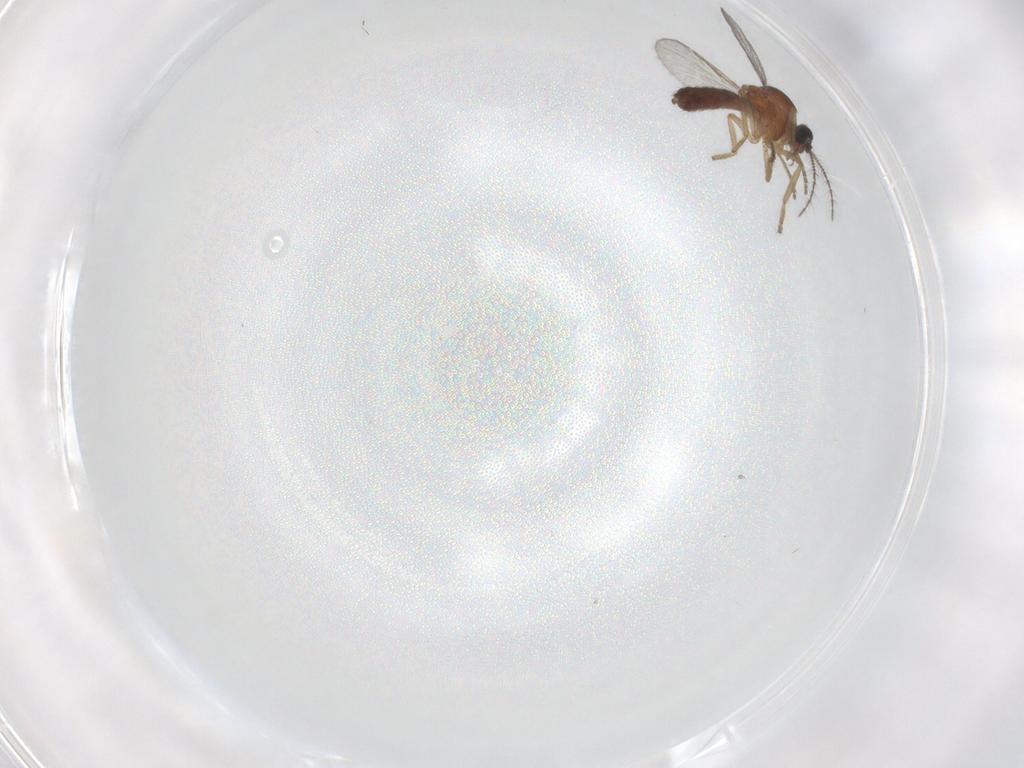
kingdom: Animalia
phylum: Arthropoda
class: Insecta
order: Diptera
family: Ceratopogonidae
